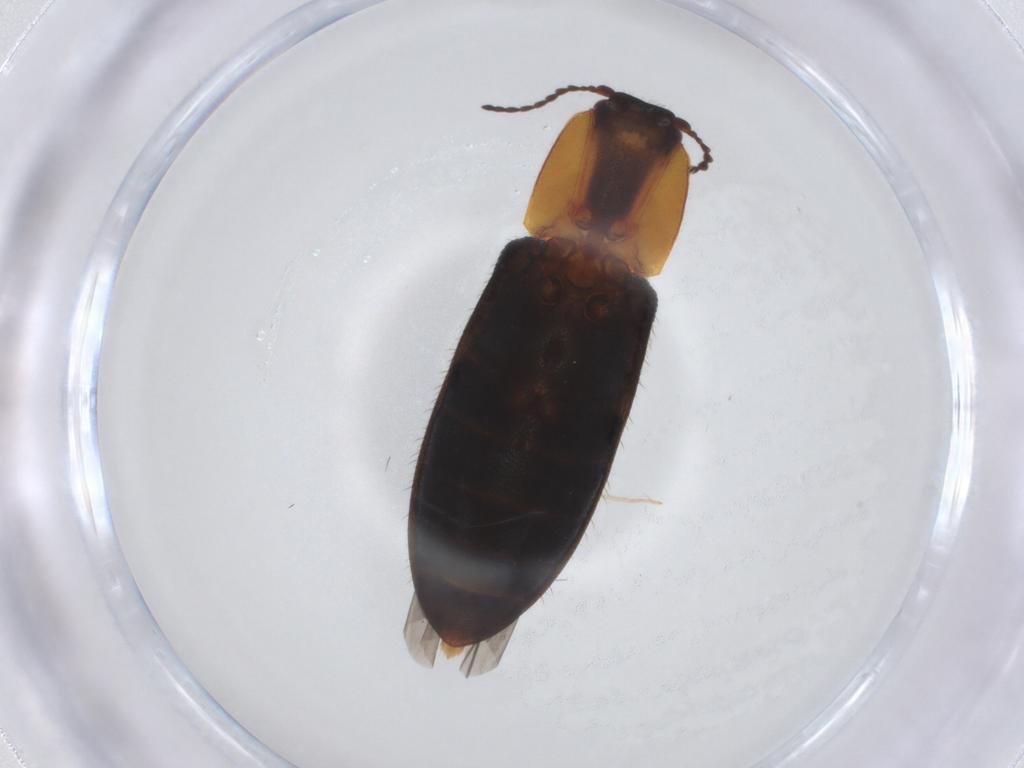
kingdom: Animalia
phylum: Arthropoda
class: Insecta
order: Coleoptera
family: Elateridae
